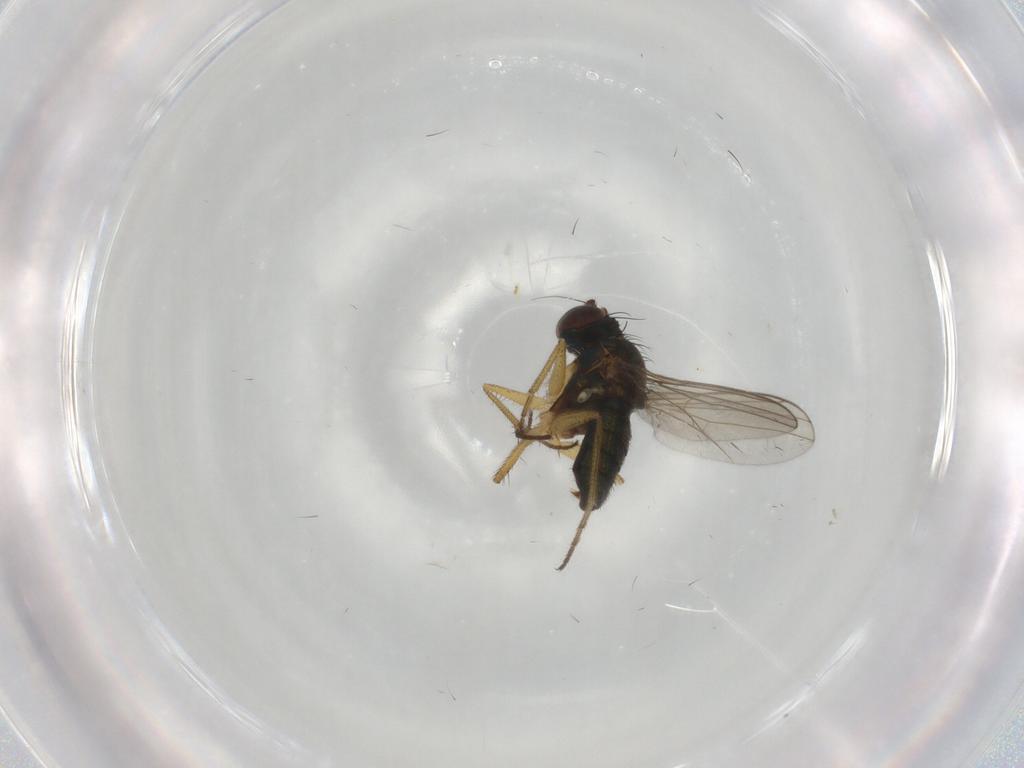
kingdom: Animalia
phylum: Arthropoda
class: Insecta
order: Diptera
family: Dolichopodidae
